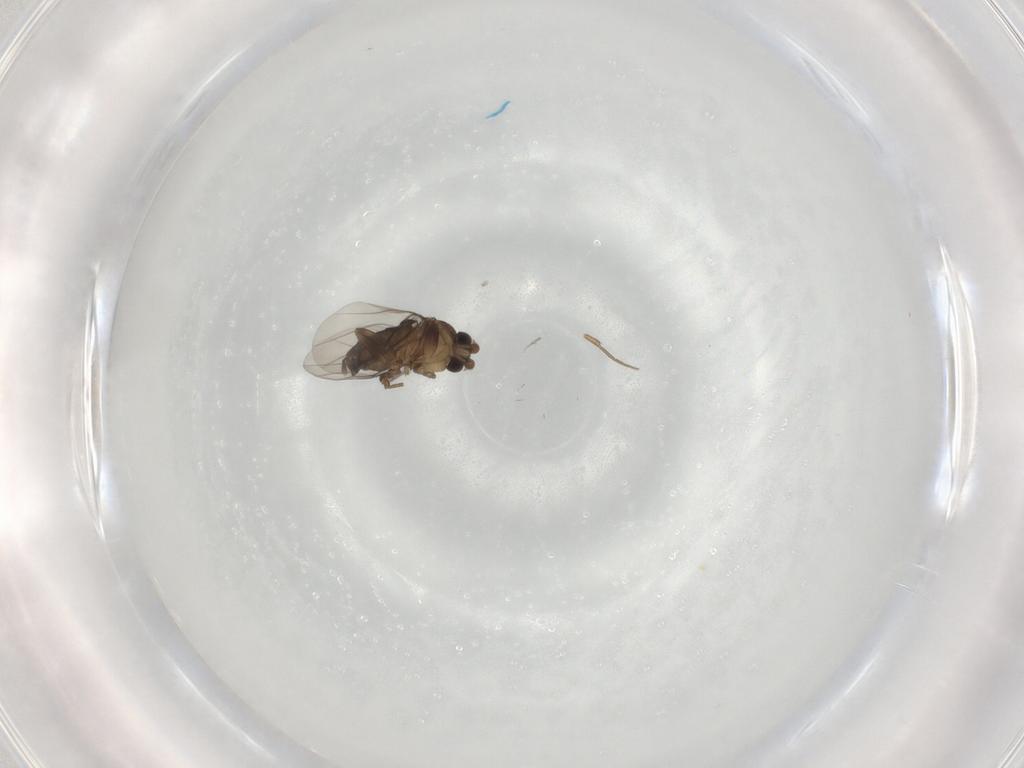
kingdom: Animalia
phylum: Arthropoda
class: Insecta
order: Diptera
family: Phoridae
